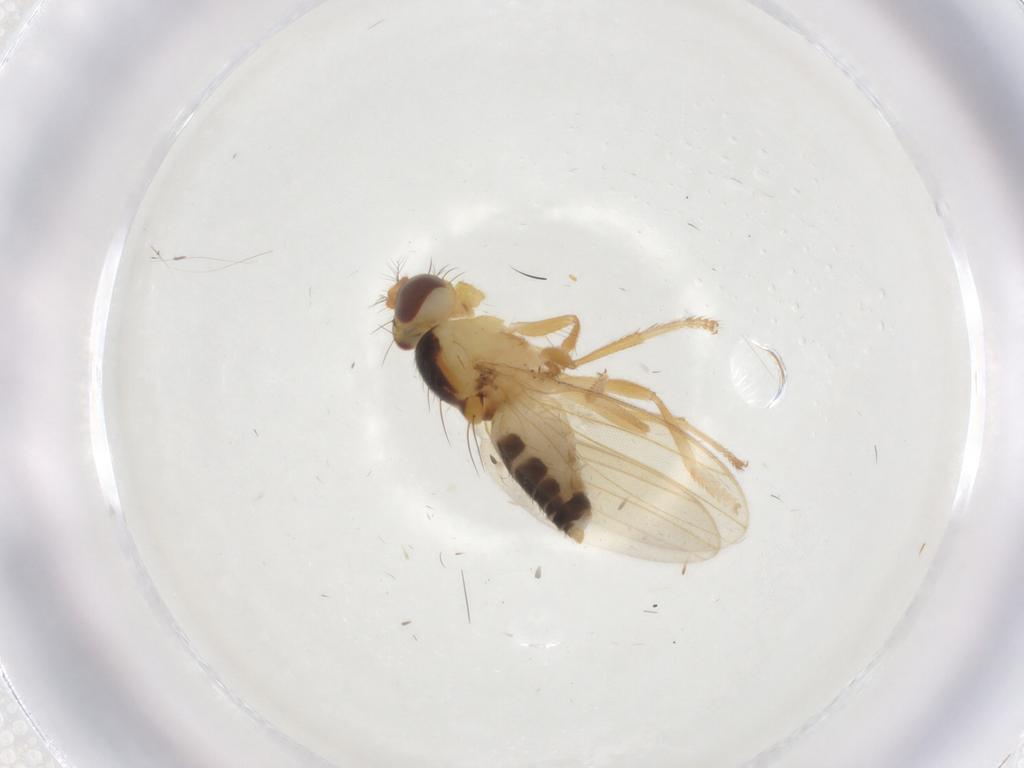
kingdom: Animalia
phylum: Arthropoda
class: Insecta
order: Diptera
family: Periscelididae
